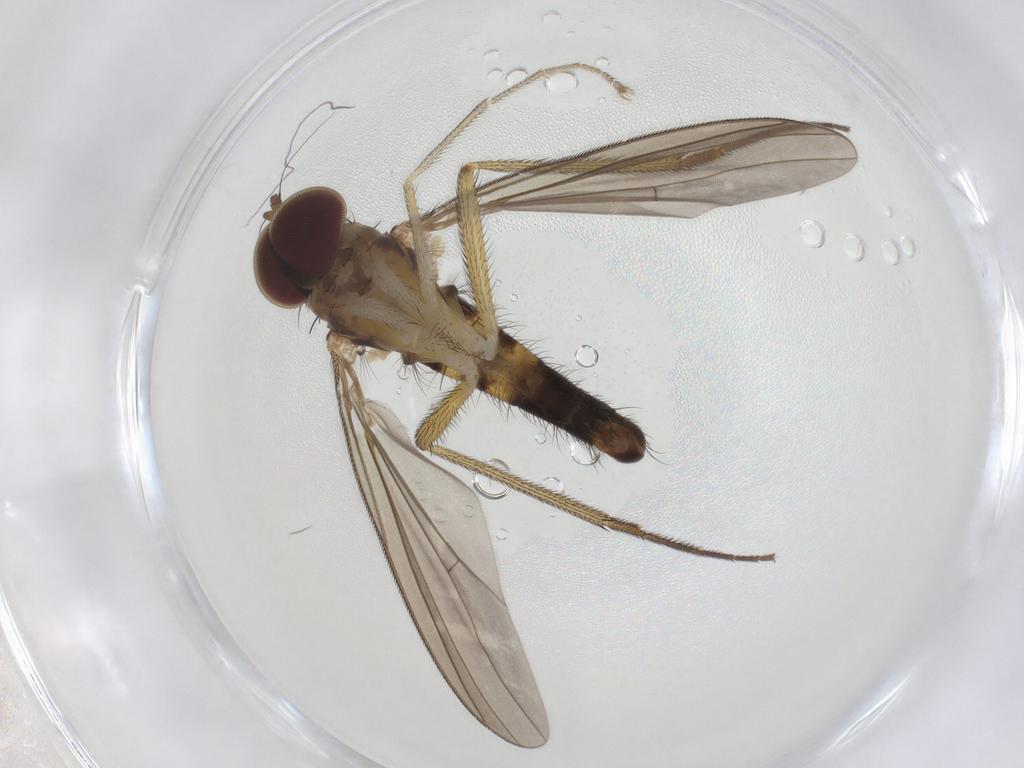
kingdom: Animalia
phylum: Arthropoda
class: Insecta
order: Diptera
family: Dolichopodidae
